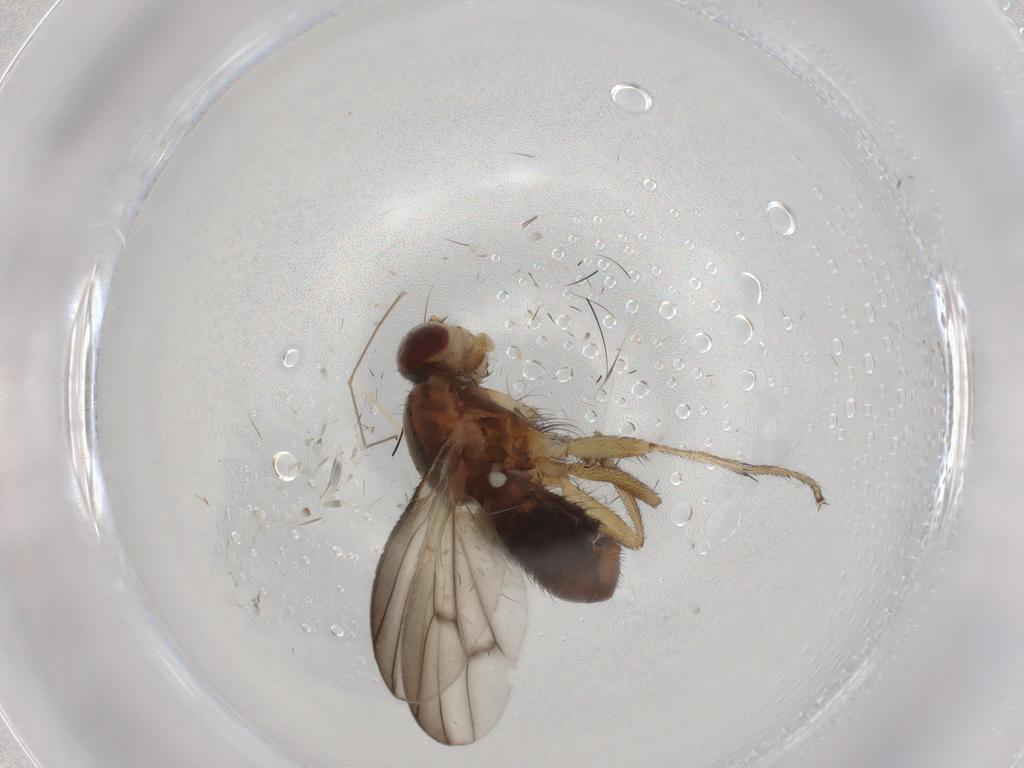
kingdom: Animalia
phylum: Arthropoda
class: Insecta
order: Diptera
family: Heleomyzidae
